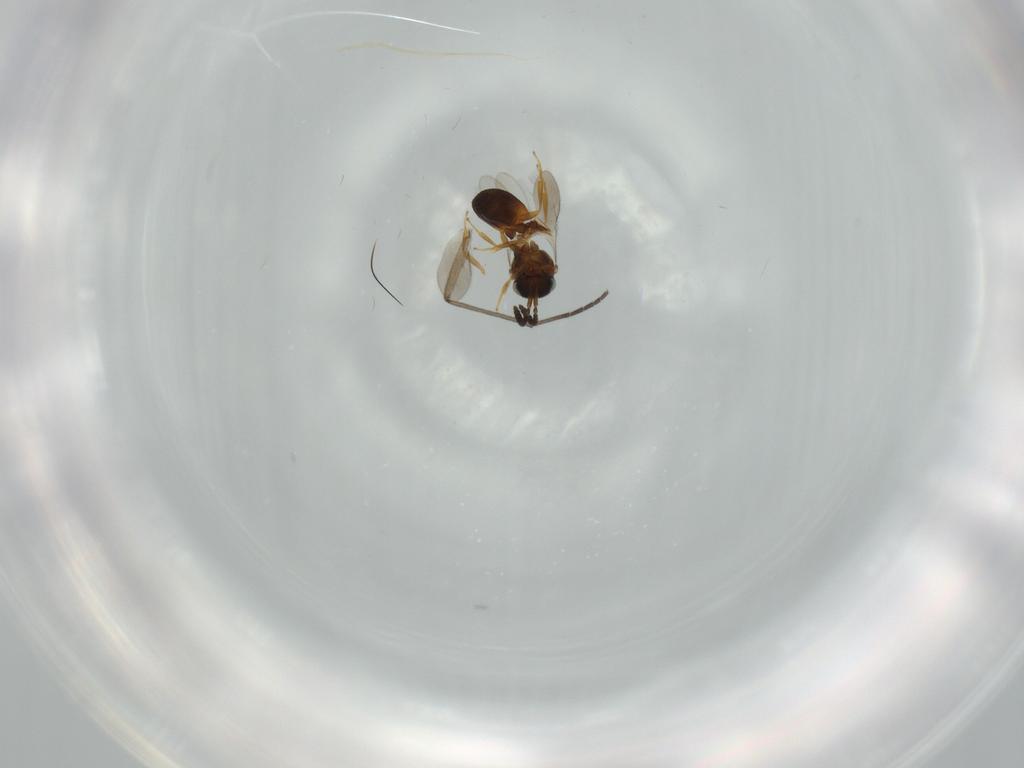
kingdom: Animalia
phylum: Arthropoda
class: Insecta
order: Hymenoptera
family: Scelionidae
